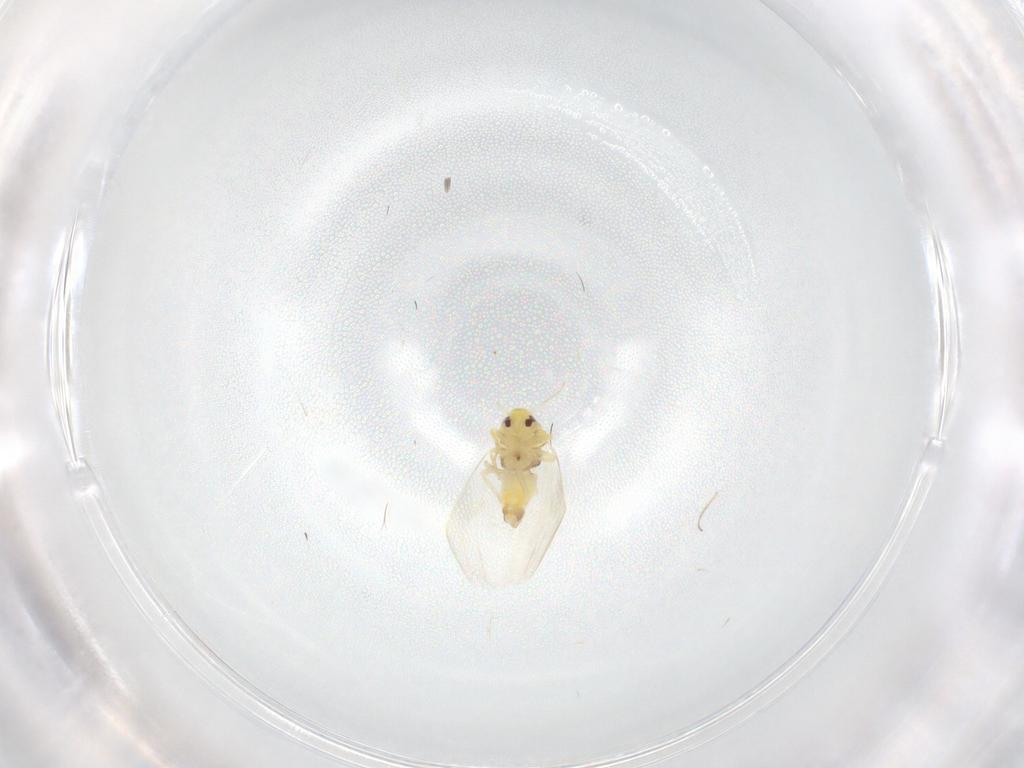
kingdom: Animalia
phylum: Arthropoda
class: Insecta
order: Hemiptera
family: Aleyrodidae
